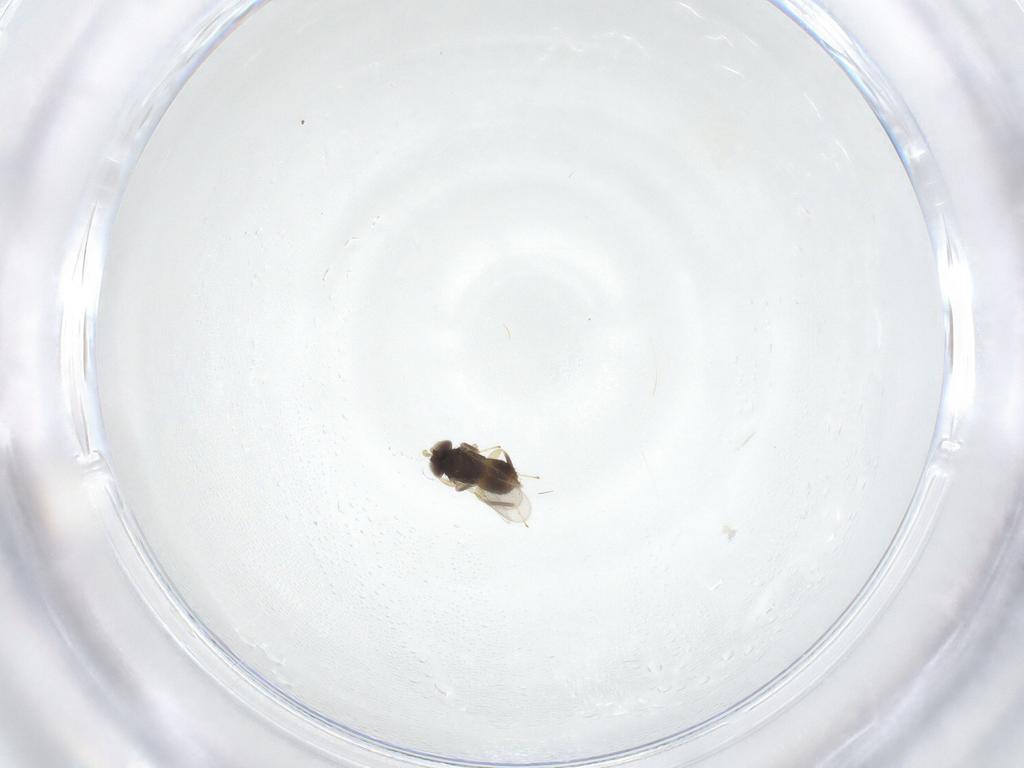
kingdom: Animalia
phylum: Arthropoda
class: Insecta
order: Hymenoptera
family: Aphelinidae
